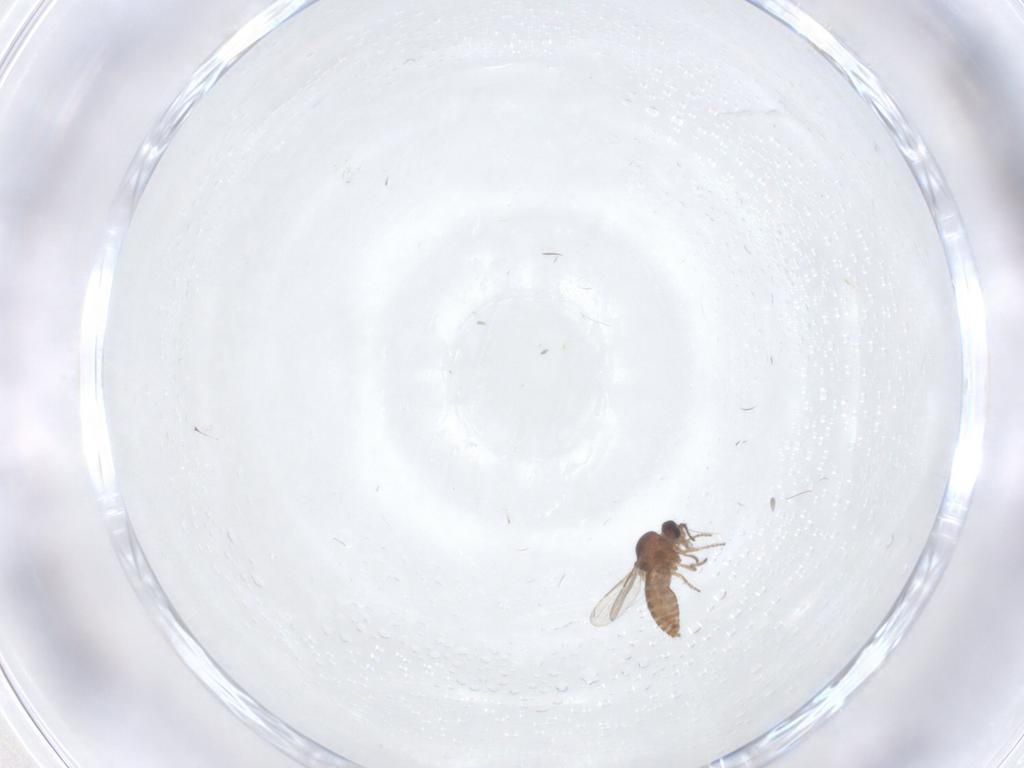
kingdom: Animalia
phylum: Arthropoda
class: Insecta
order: Diptera
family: Ceratopogonidae
